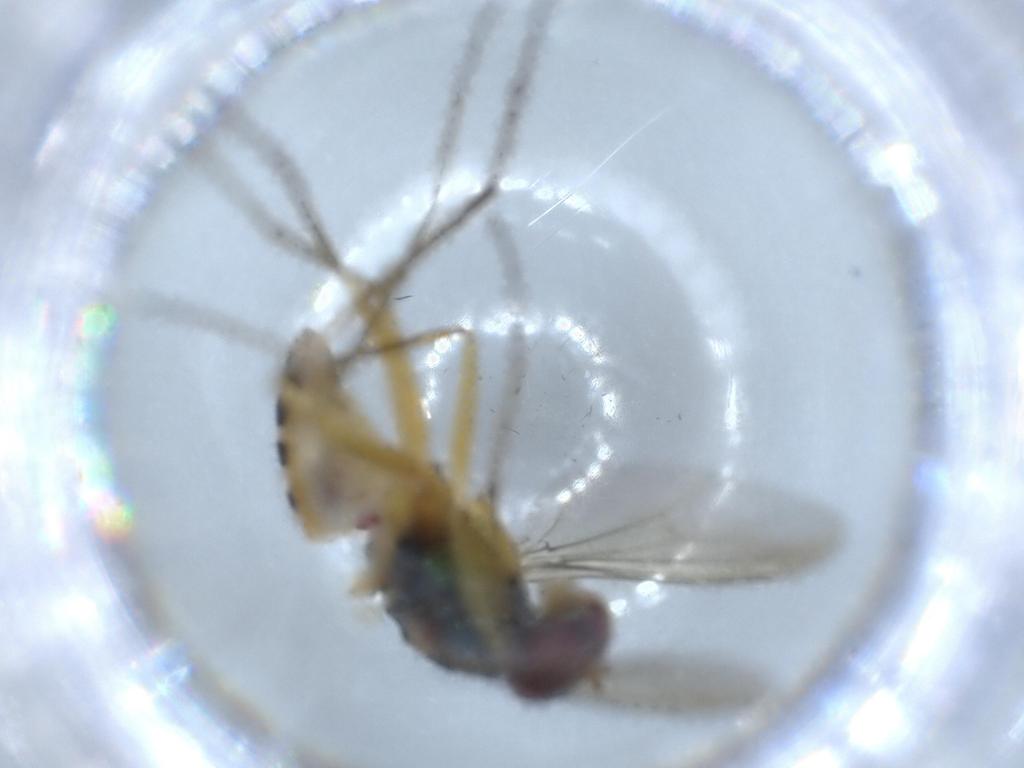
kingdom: Animalia
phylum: Arthropoda
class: Insecta
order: Diptera
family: Dolichopodidae
